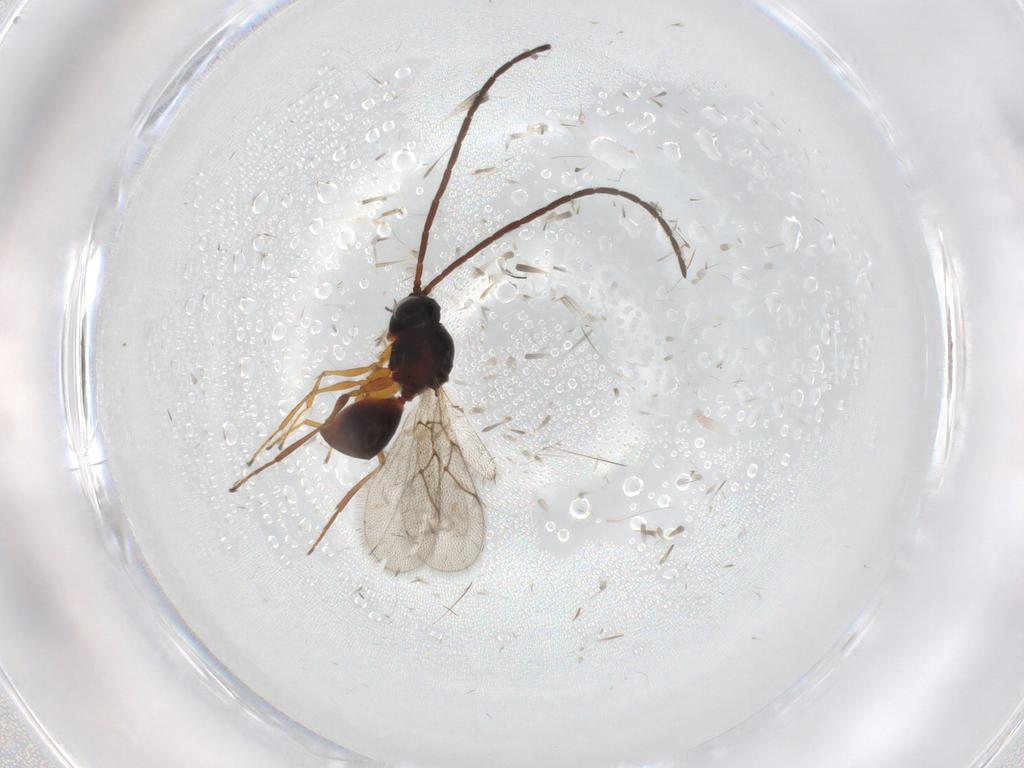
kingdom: Animalia
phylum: Arthropoda
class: Insecta
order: Hymenoptera
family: Figitidae
